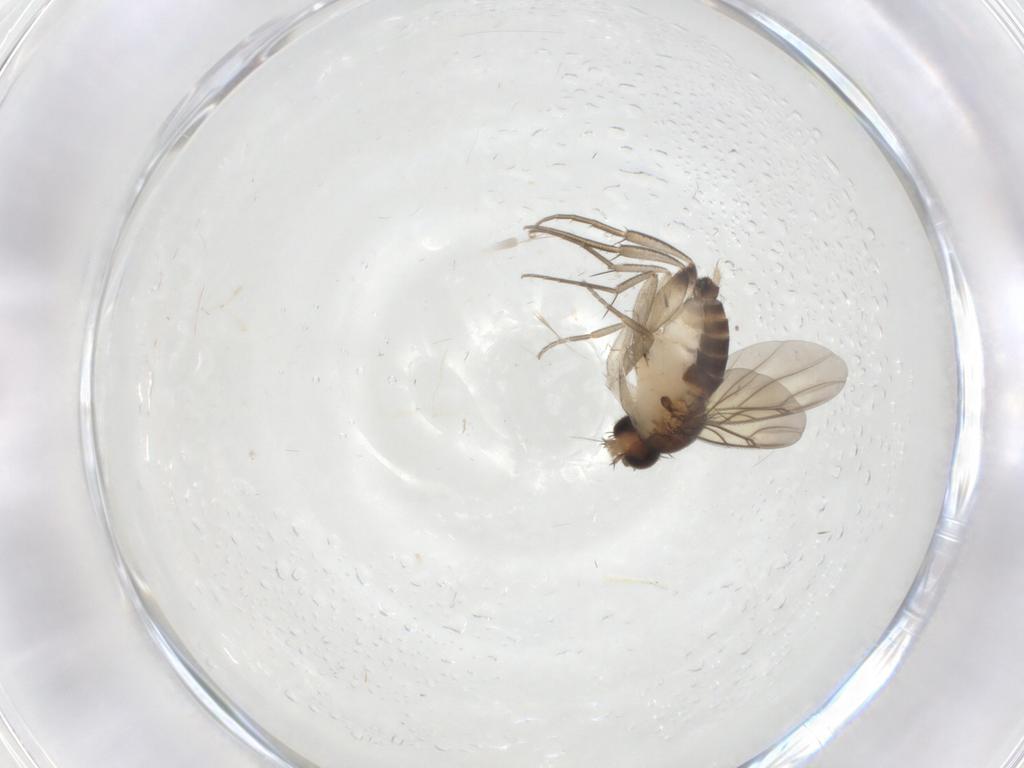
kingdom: Animalia
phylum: Arthropoda
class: Insecta
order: Diptera
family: Phoridae
